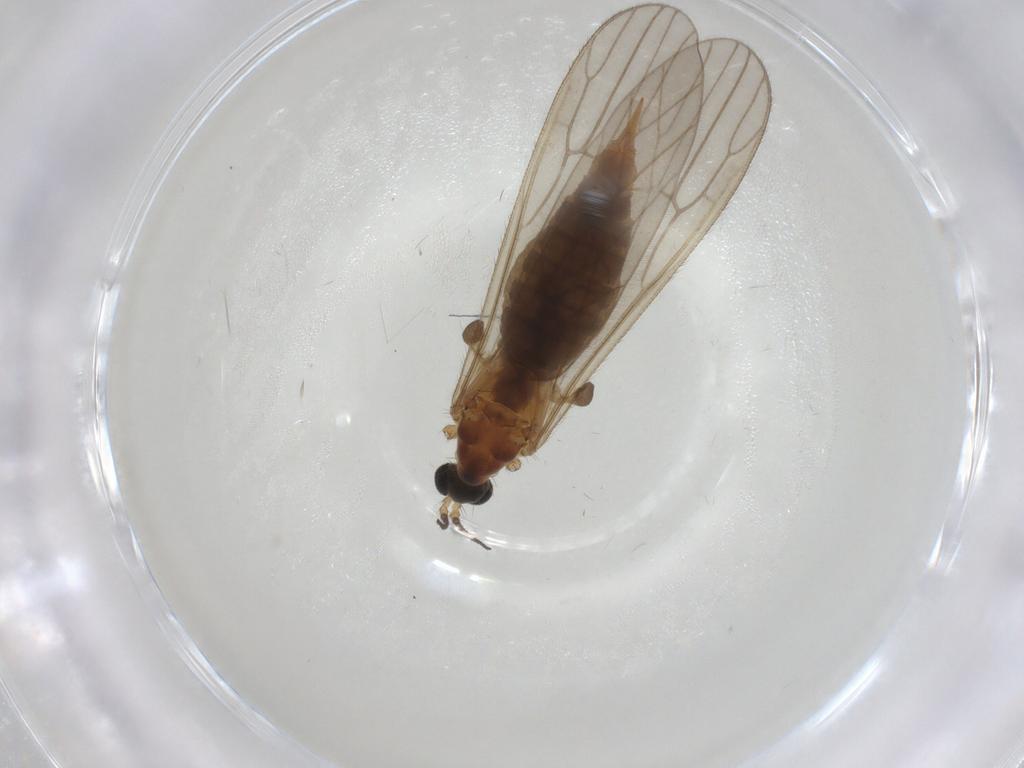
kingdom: Animalia
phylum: Arthropoda
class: Insecta
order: Diptera
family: Limoniidae
